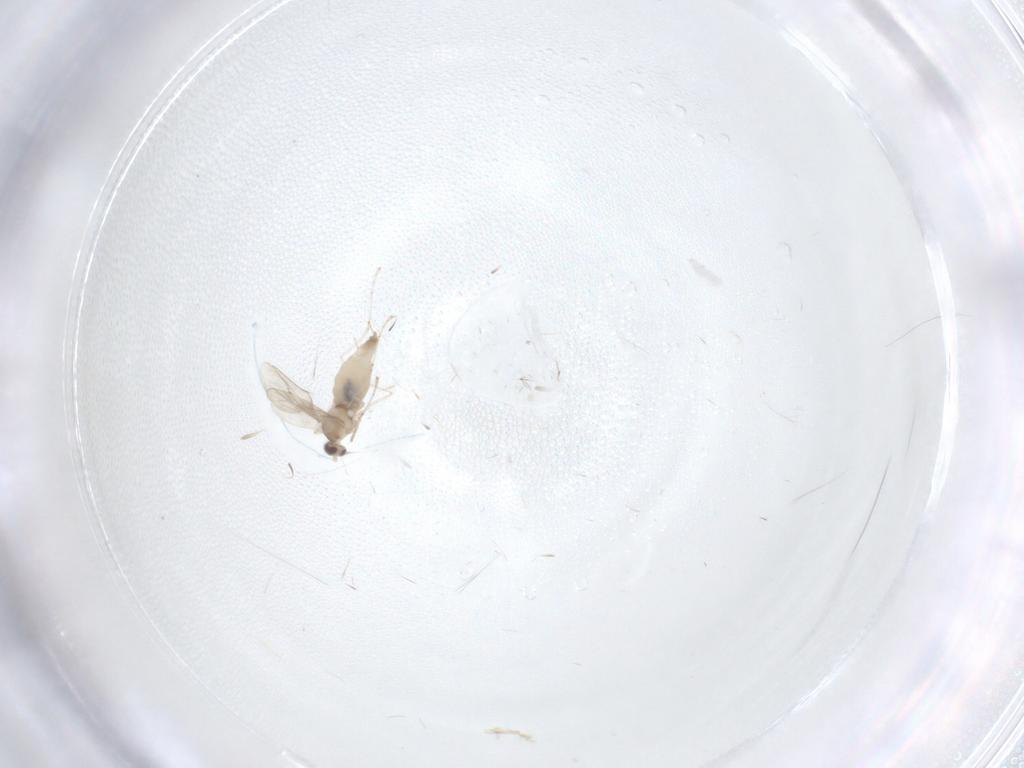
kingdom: Animalia
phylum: Arthropoda
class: Insecta
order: Diptera
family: Cecidomyiidae
